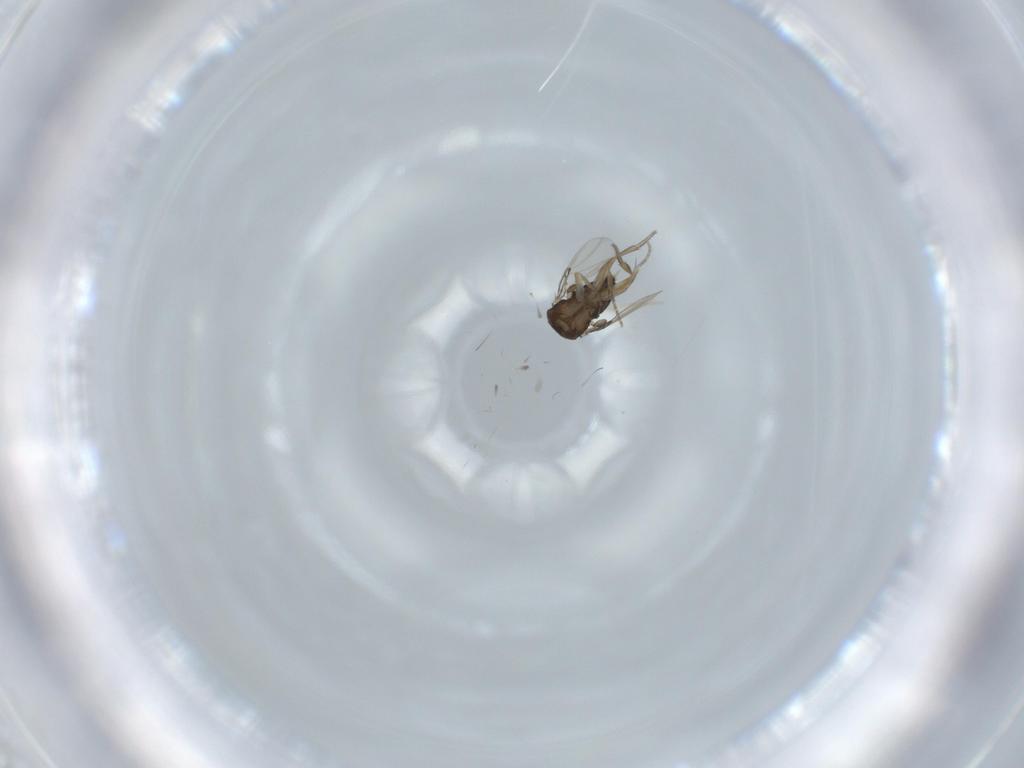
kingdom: Animalia
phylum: Arthropoda
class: Insecta
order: Diptera
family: Phoridae
